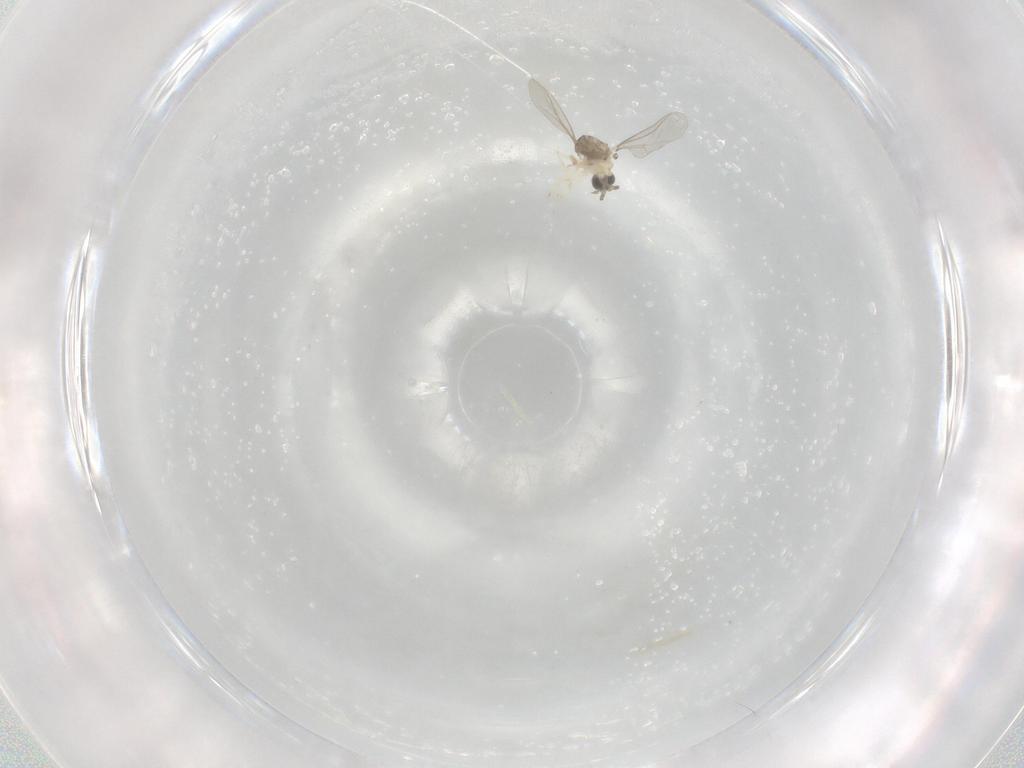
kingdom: Animalia
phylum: Arthropoda
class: Insecta
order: Diptera
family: Cecidomyiidae
